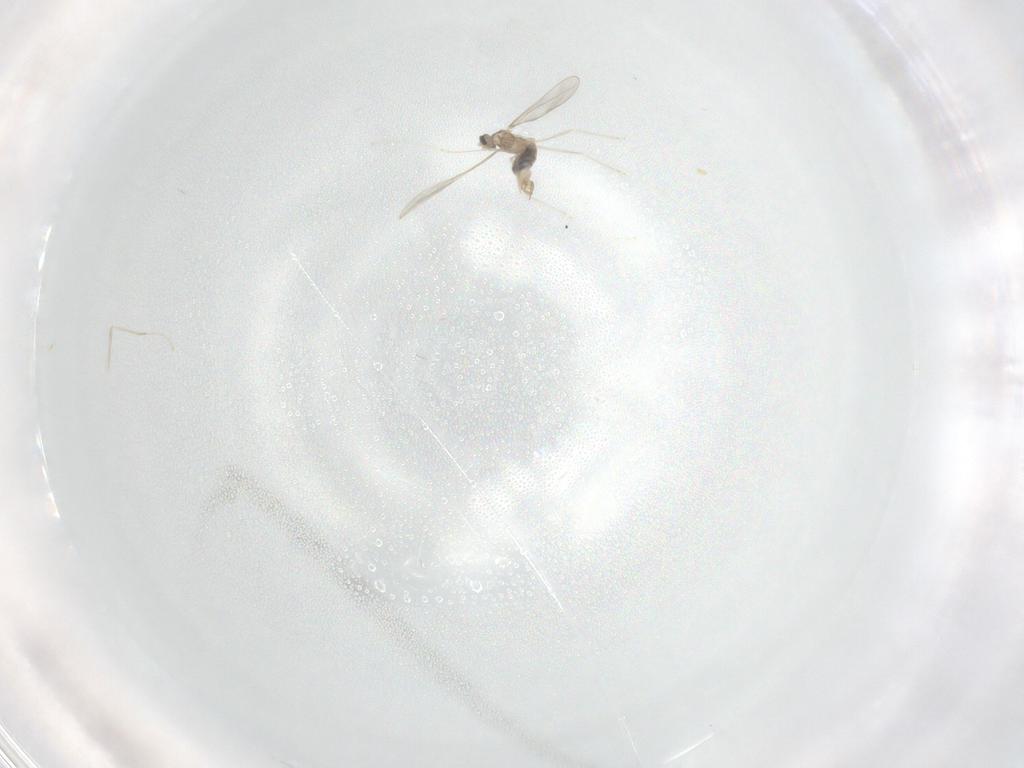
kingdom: Animalia
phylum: Arthropoda
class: Insecta
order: Diptera
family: Cecidomyiidae
